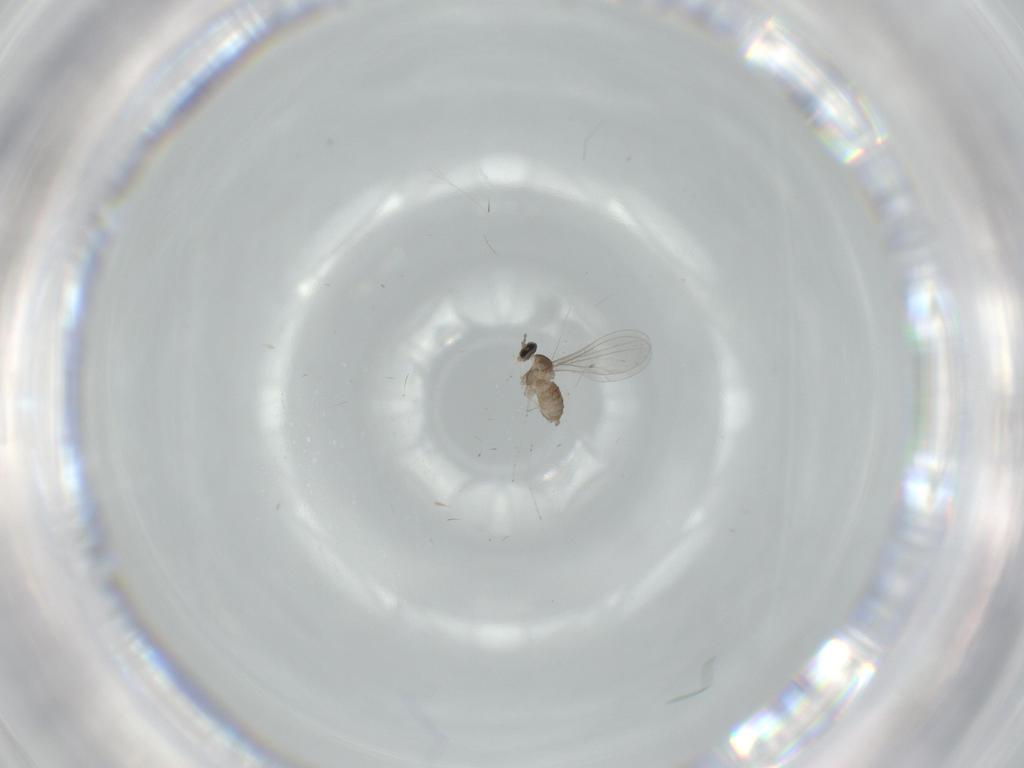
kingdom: Animalia
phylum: Arthropoda
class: Insecta
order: Diptera
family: Cecidomyiidae
